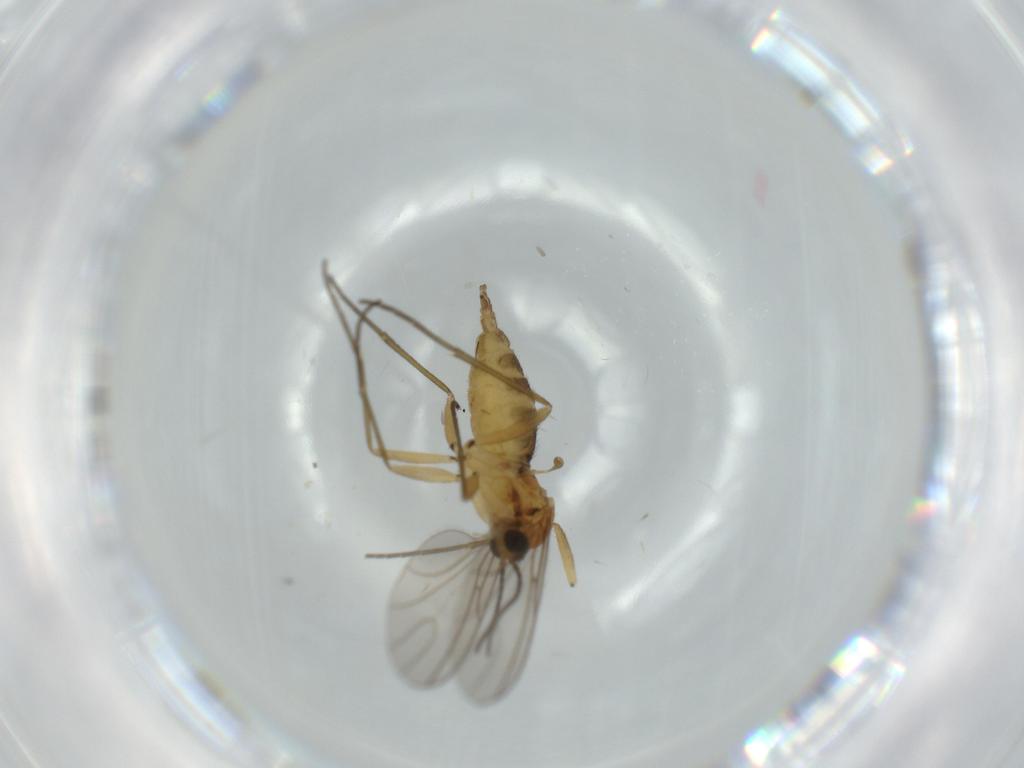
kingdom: Animalia
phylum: Arthropoda
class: Insecta
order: Diptera
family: Sciaridae
